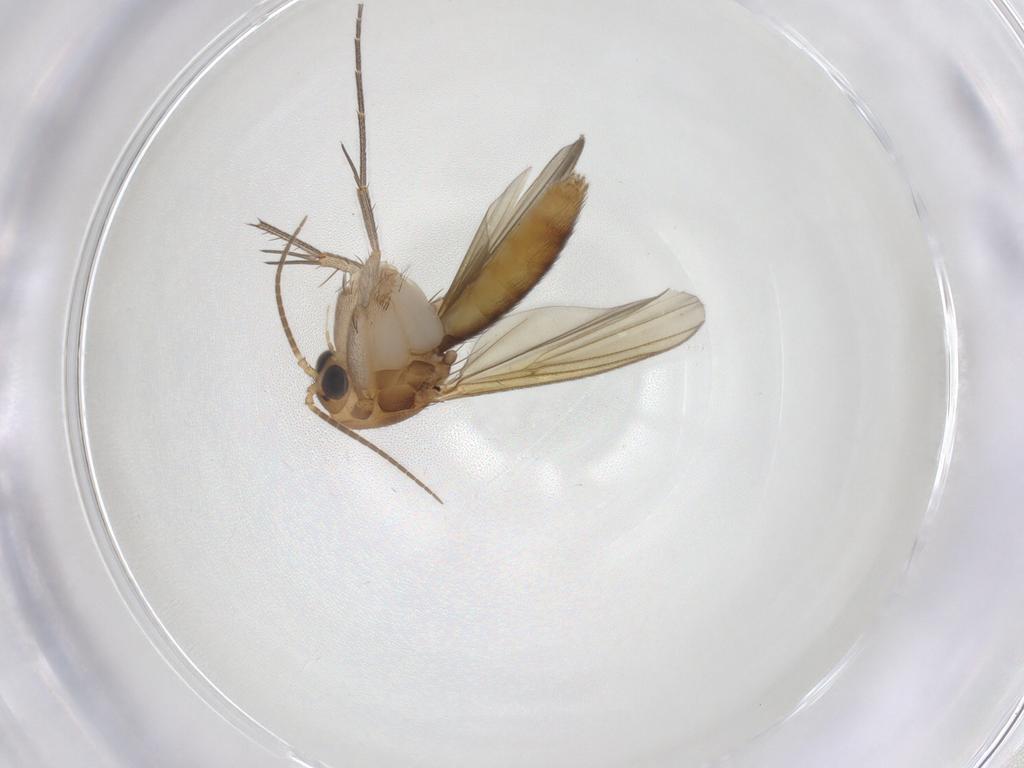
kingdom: Animalia
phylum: Arthropoda
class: Insecta
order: Diptera
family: Sciaridae
